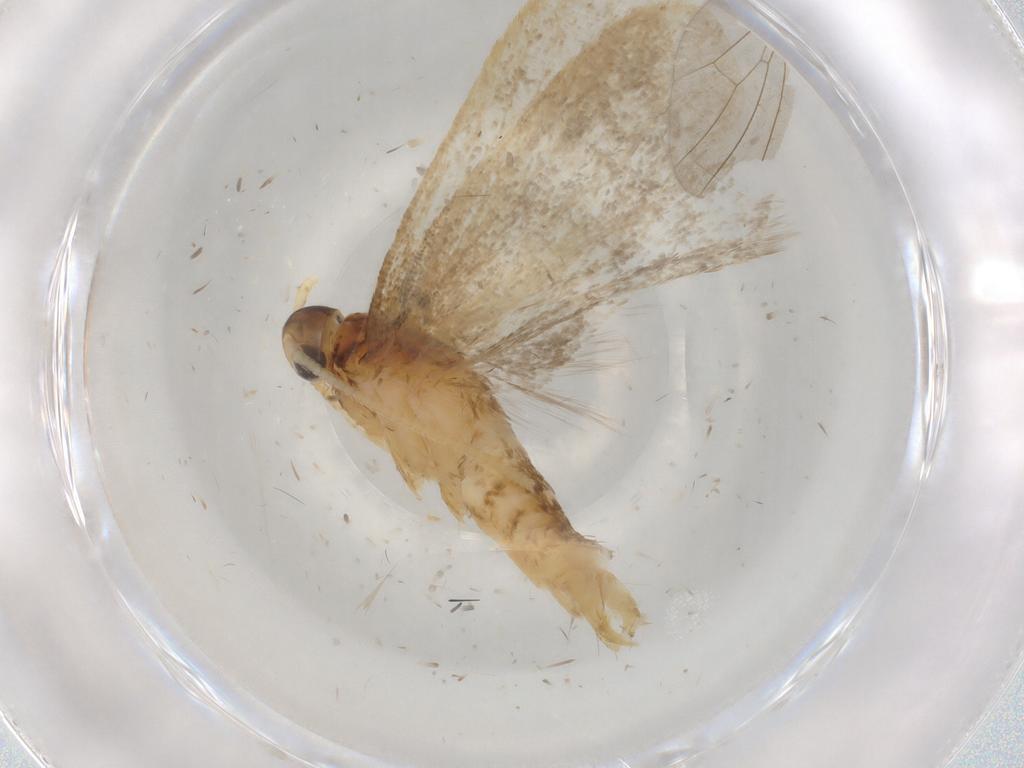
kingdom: Animalia
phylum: Arthropoda
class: Insecta
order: Lepidoptera
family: Lecithoceridae
